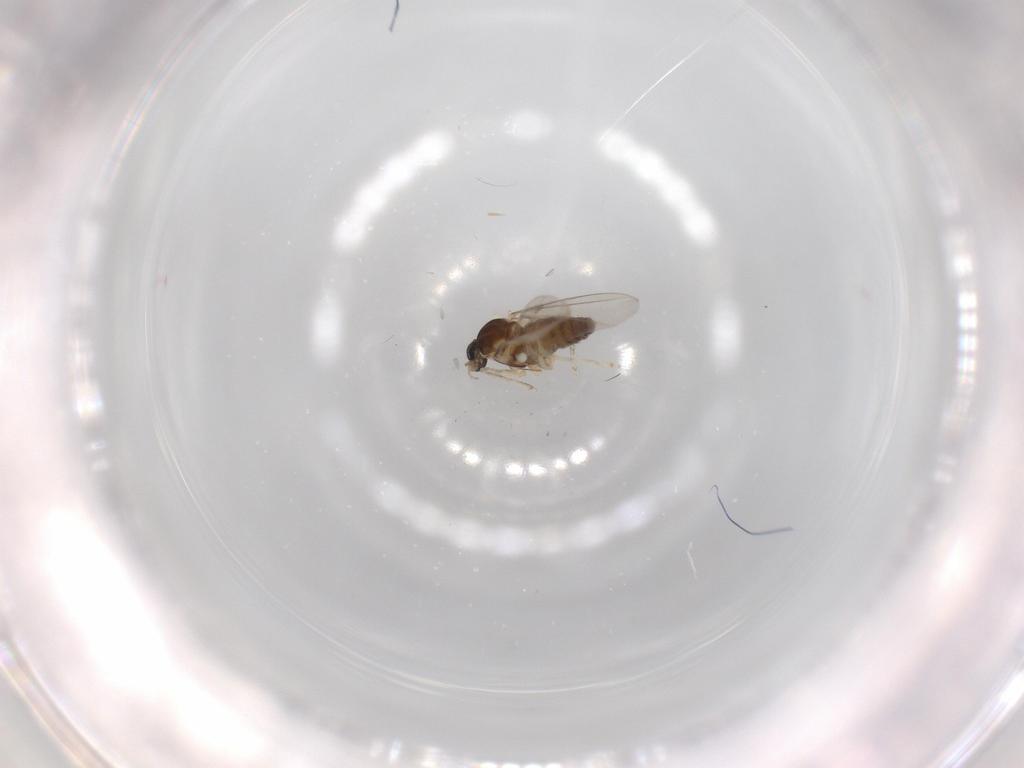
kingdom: Animalia
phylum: Arthropoda
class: Insecta
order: Diptera
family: Cecidomyiidae
